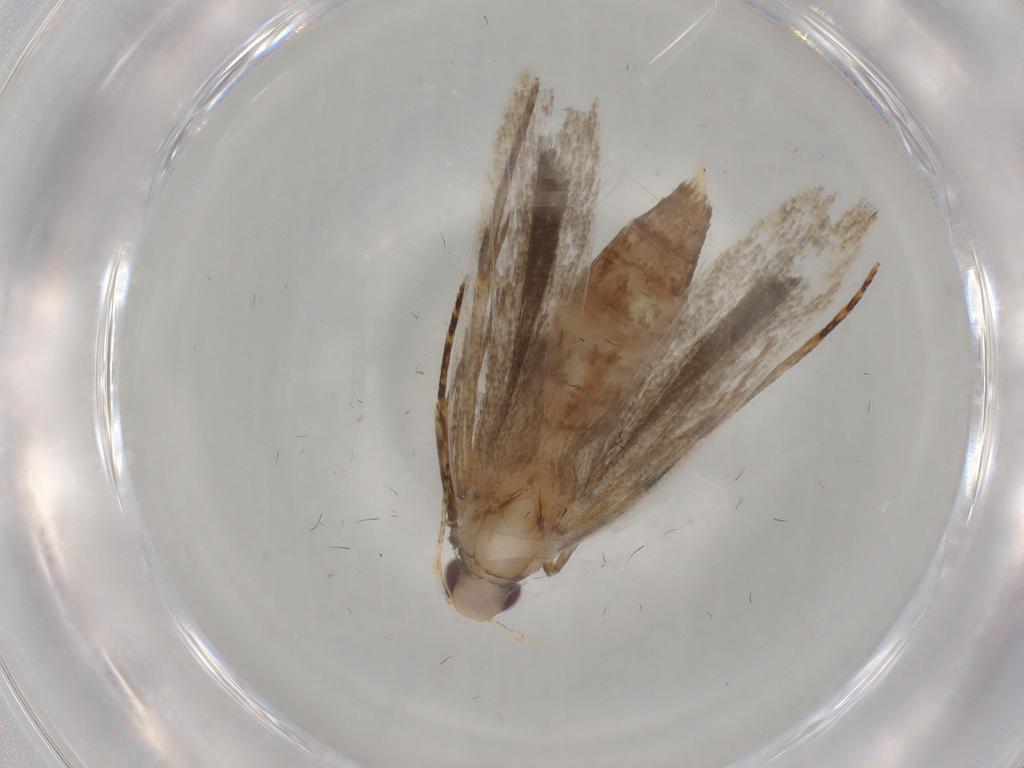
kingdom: Animalia
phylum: Arthropoda
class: Insecta
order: Lepidoptera
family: Gelechiidae
